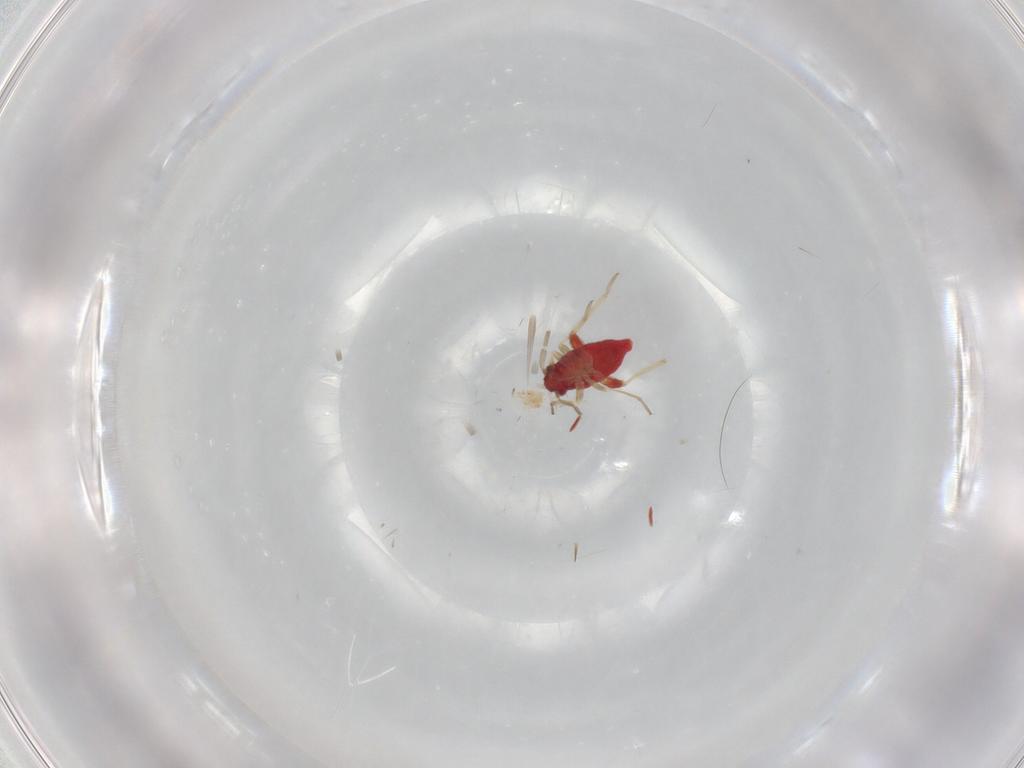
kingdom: Animalia
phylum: Arthropoda
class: Insecta
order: Hemiptera
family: Miridae
